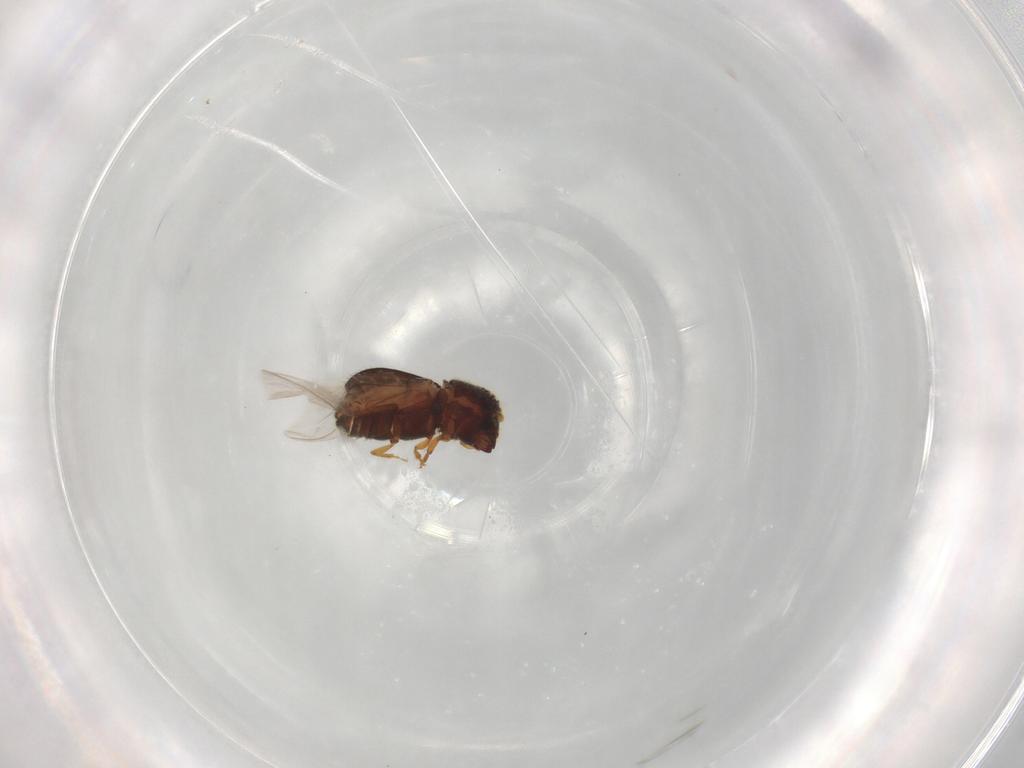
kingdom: Animalia
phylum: Arthropoda
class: Insecta
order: Coleoptera
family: Curculionidae
